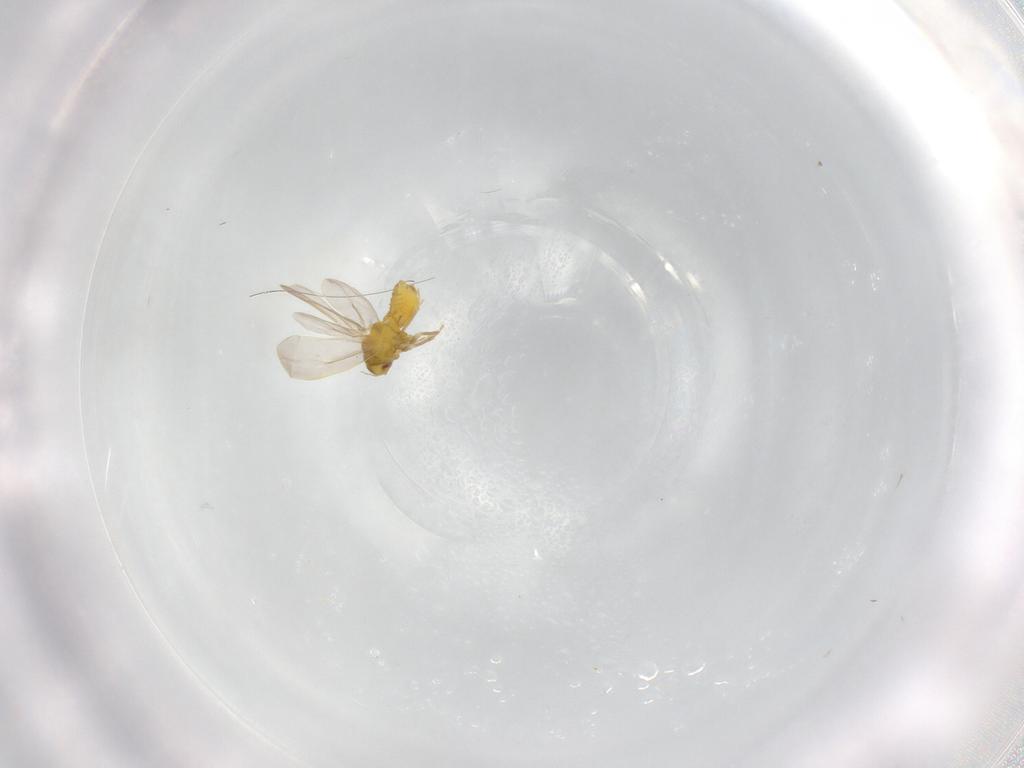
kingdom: Animalia
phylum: Arthropoda
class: Insecta
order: Hemiptera
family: Aleyrodidae
